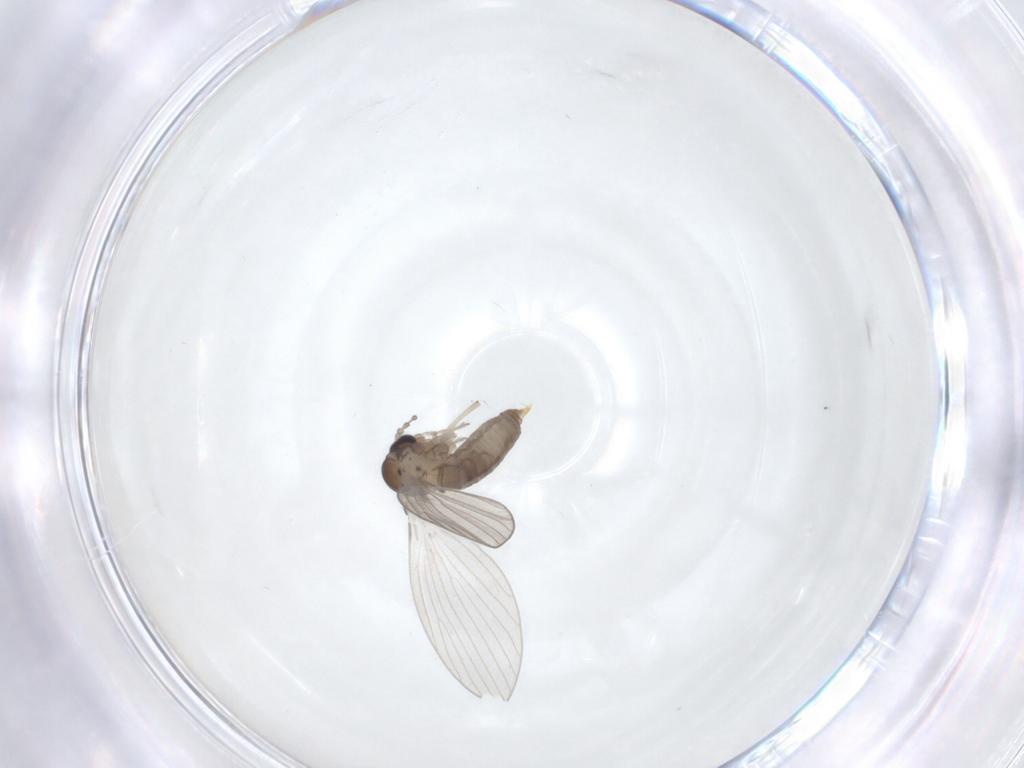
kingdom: Animalia
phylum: Arthropoda
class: Insecta
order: Diptera
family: Psychodidae
